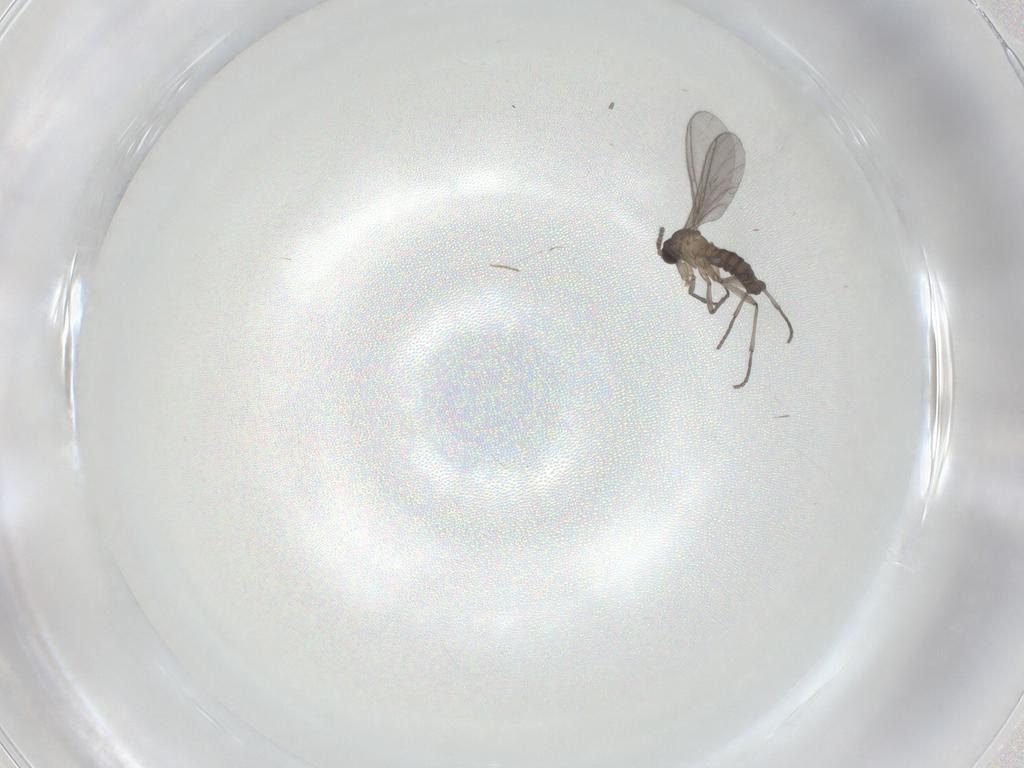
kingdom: Animalia
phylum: Arthropoda
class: Insecta
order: Diptera
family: Sciaridae
